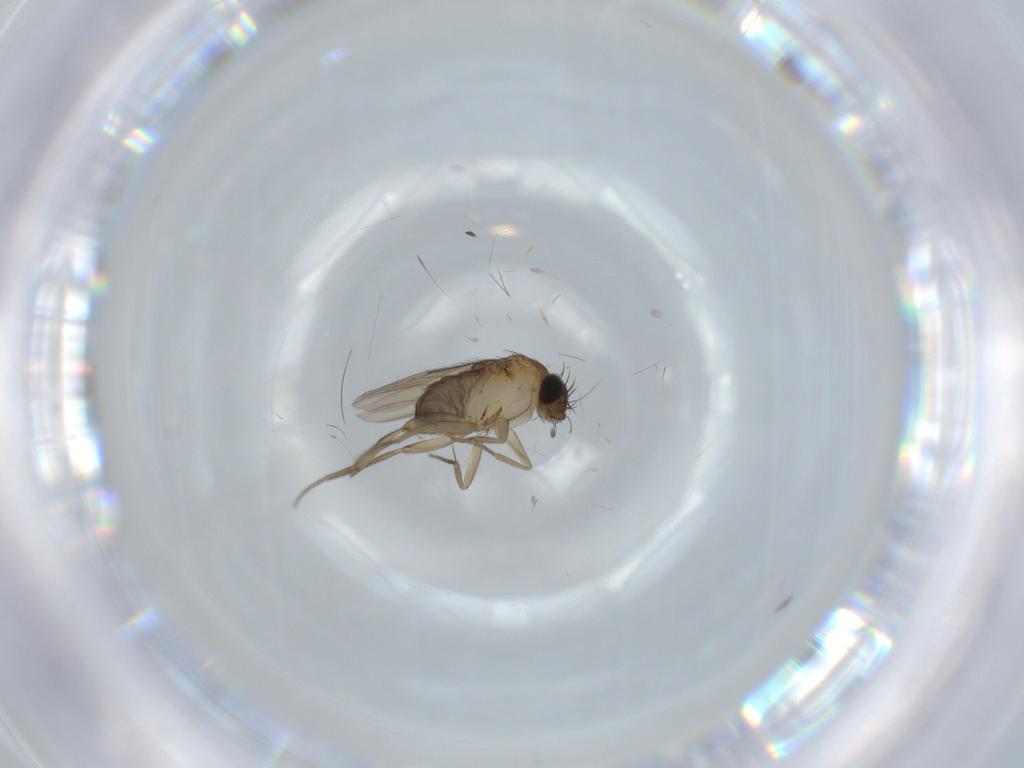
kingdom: Animalia
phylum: Arthropoda
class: Insecta
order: Diptera
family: Phoridae
